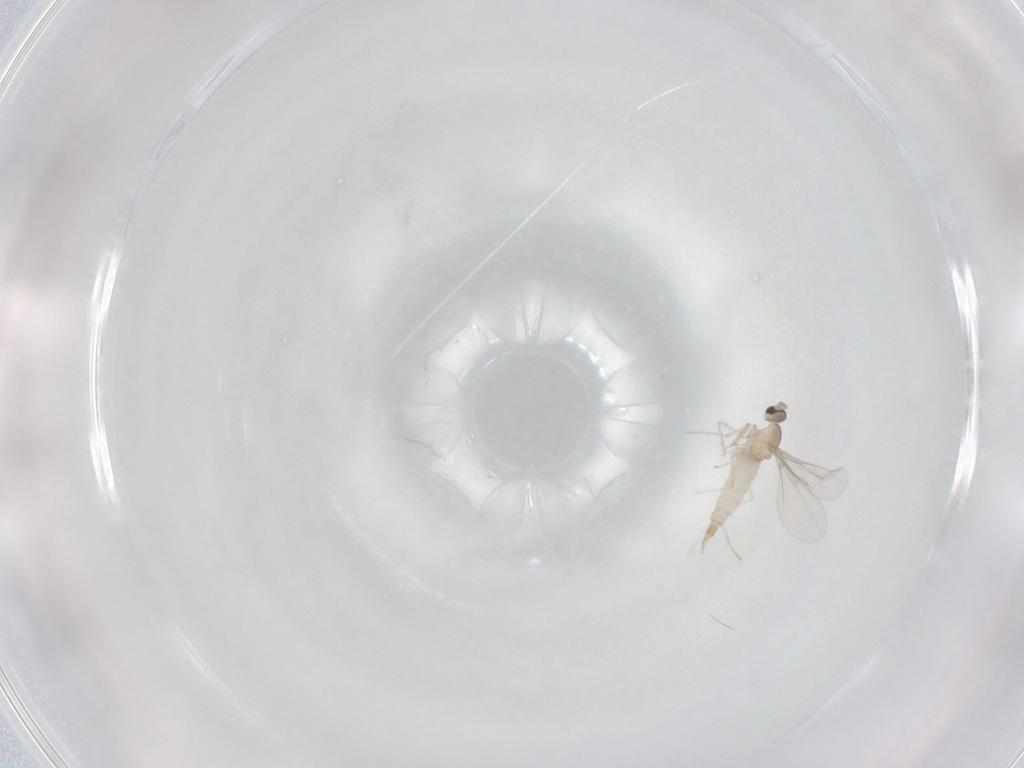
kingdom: Animalia
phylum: Arthropoda
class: Insecta
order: Diptera
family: Cecidomyiidae
